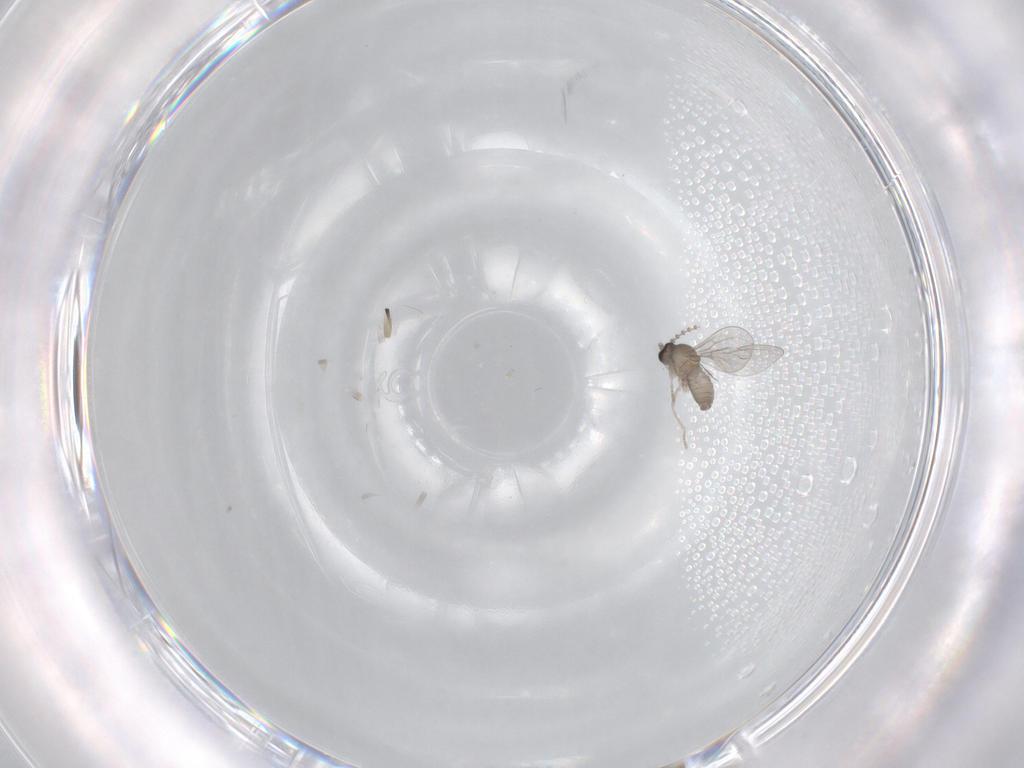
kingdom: Animalia
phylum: Arthropoda
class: Insecta
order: Diptera
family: Cecidomyiidae
